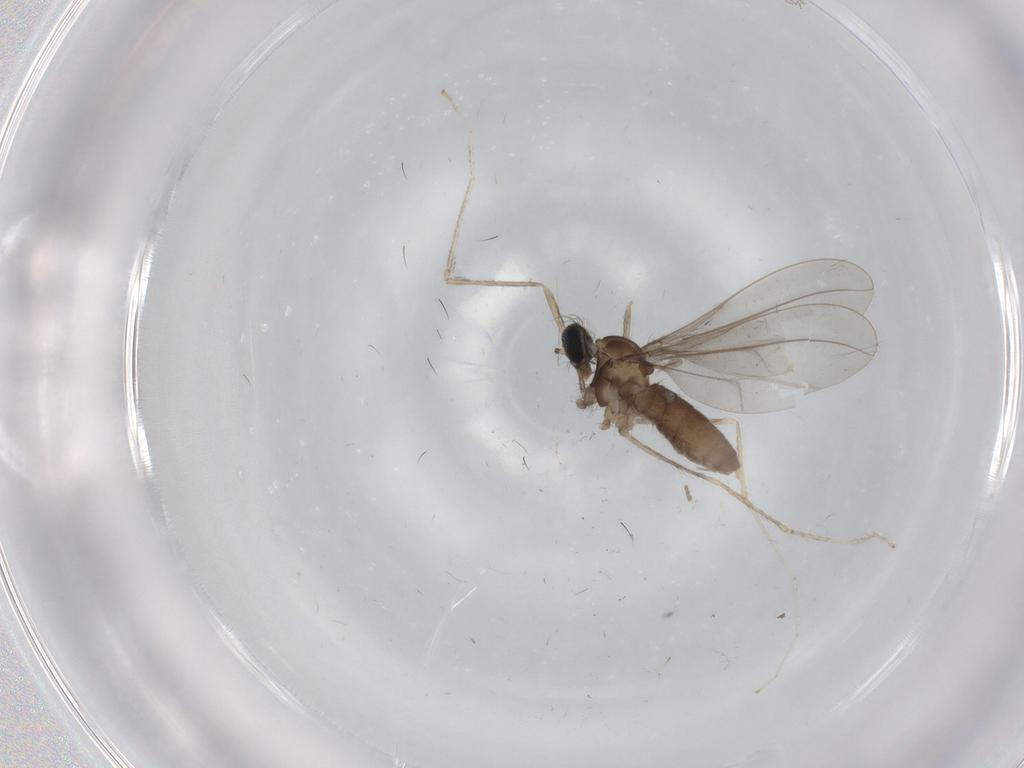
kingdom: Animalia
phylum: Arthropoda
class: Insecta
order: Diptera
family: Cecidomyiidae
